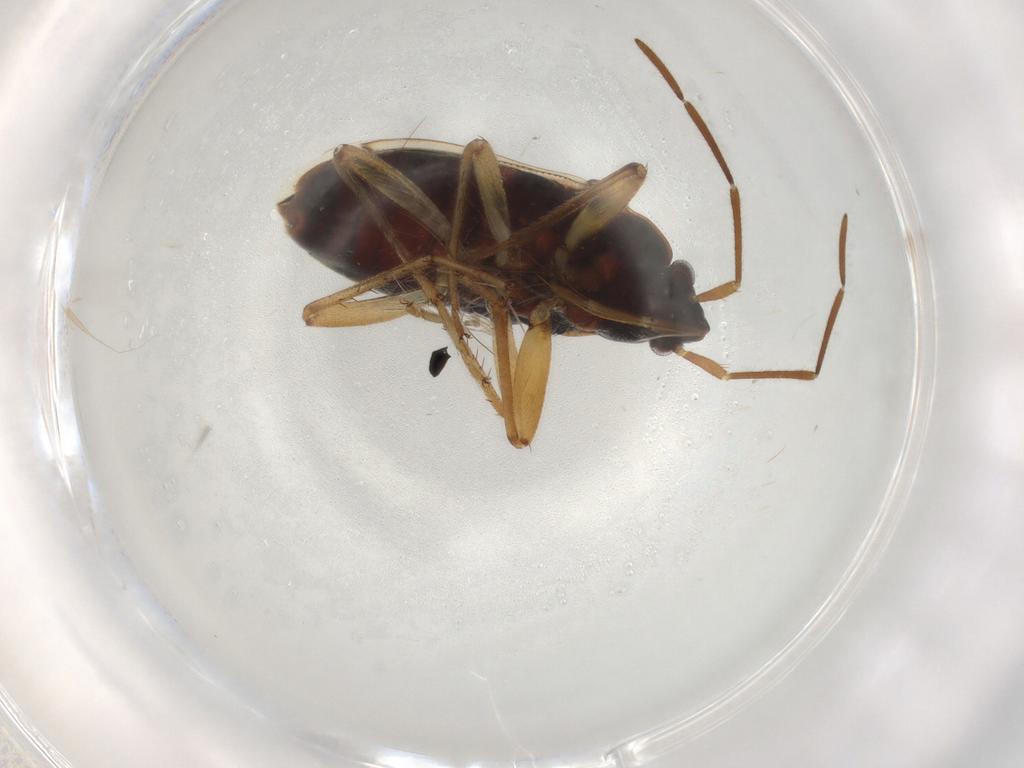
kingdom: Animalia
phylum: Arthropoda
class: Insecta
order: Hemiptera
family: Rhyparochromidae
